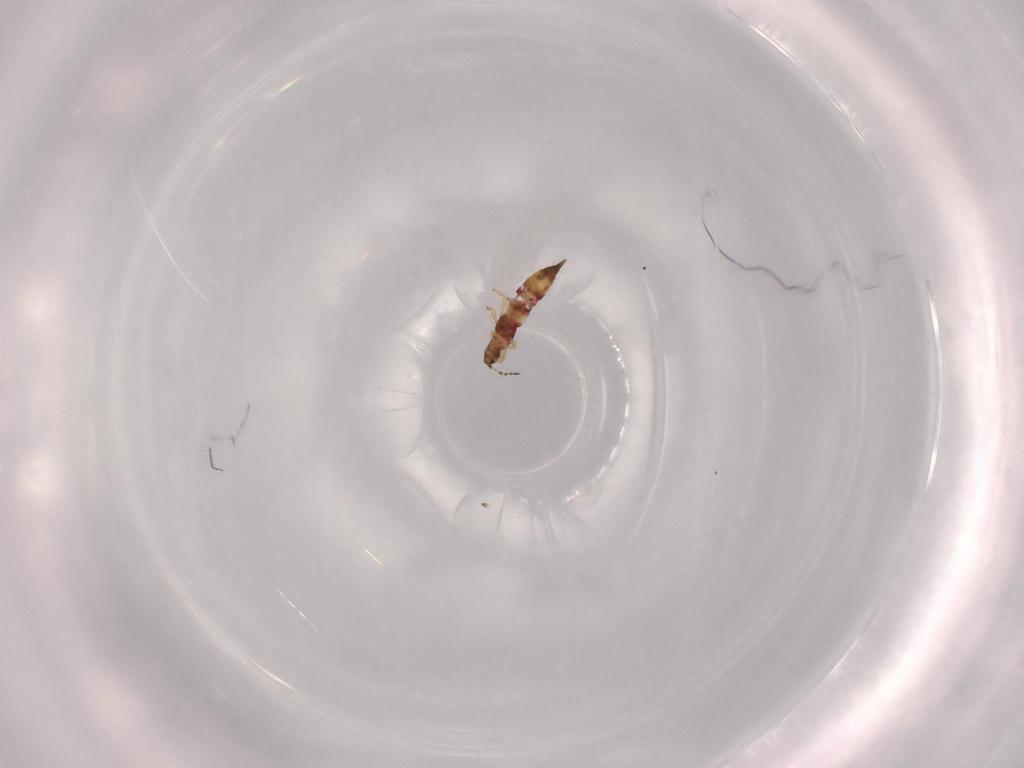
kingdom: Animalia
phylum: Arthropoda
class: Insecta
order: Thysanoptera
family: Phlaeothripidae
